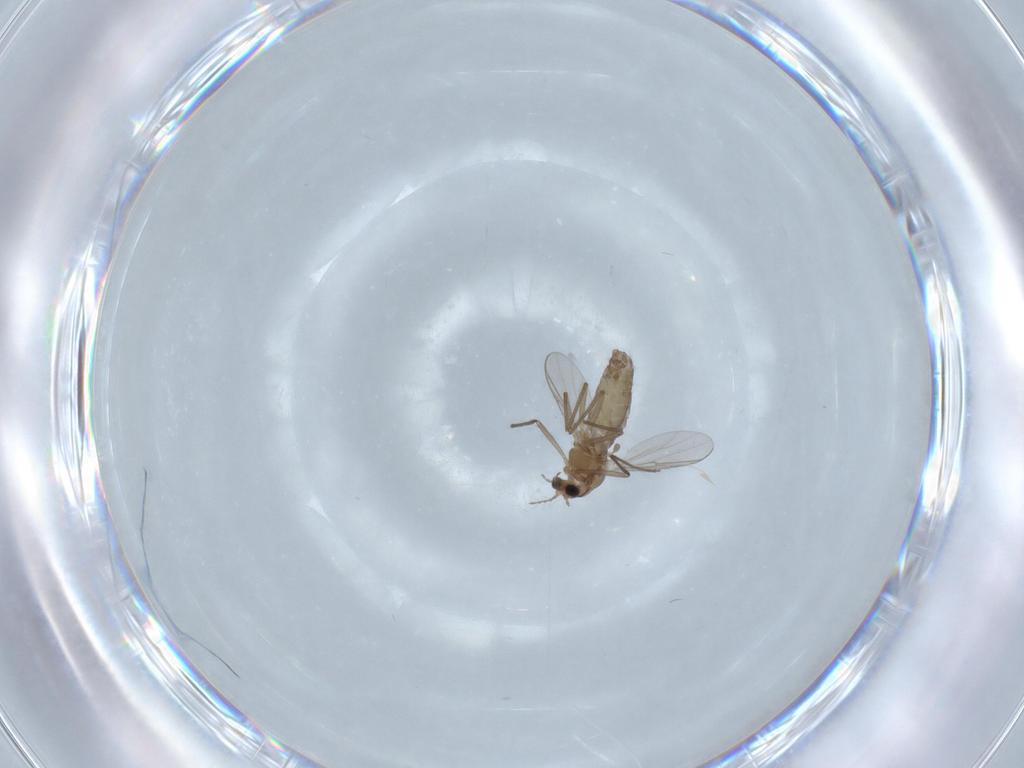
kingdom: Animalia
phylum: Arthropoda
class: Insecta
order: Diptera
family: Chironomidae
